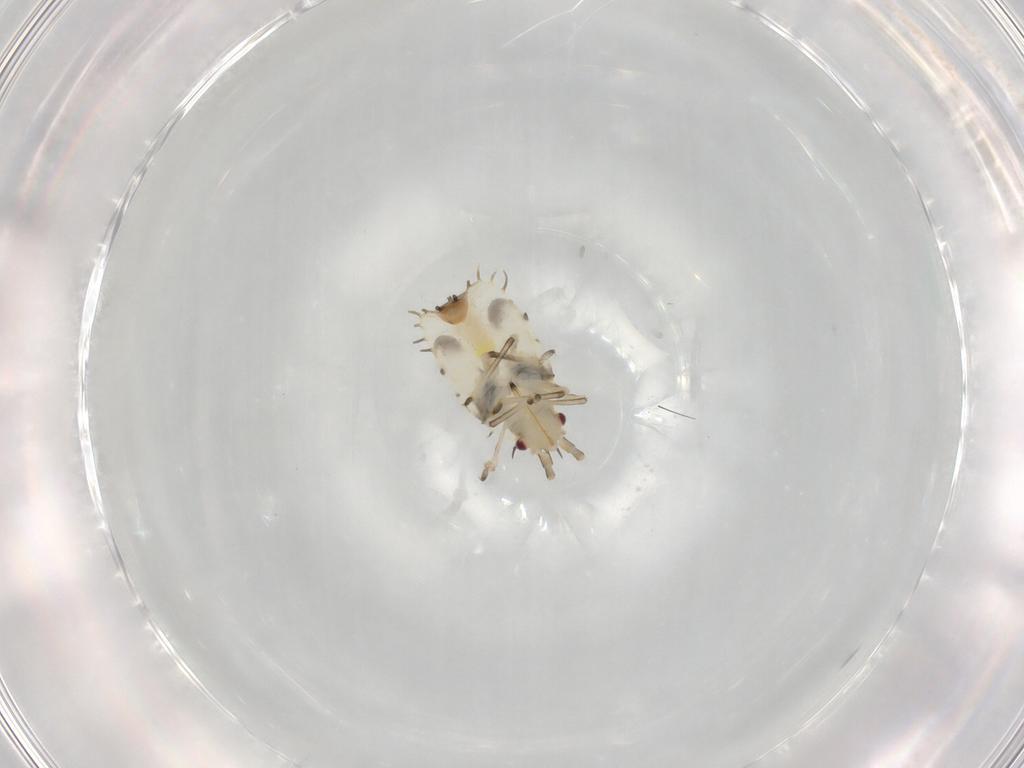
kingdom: Animalia
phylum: Arthropoda
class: Insecta
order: Hemiptera
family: Tingidae
